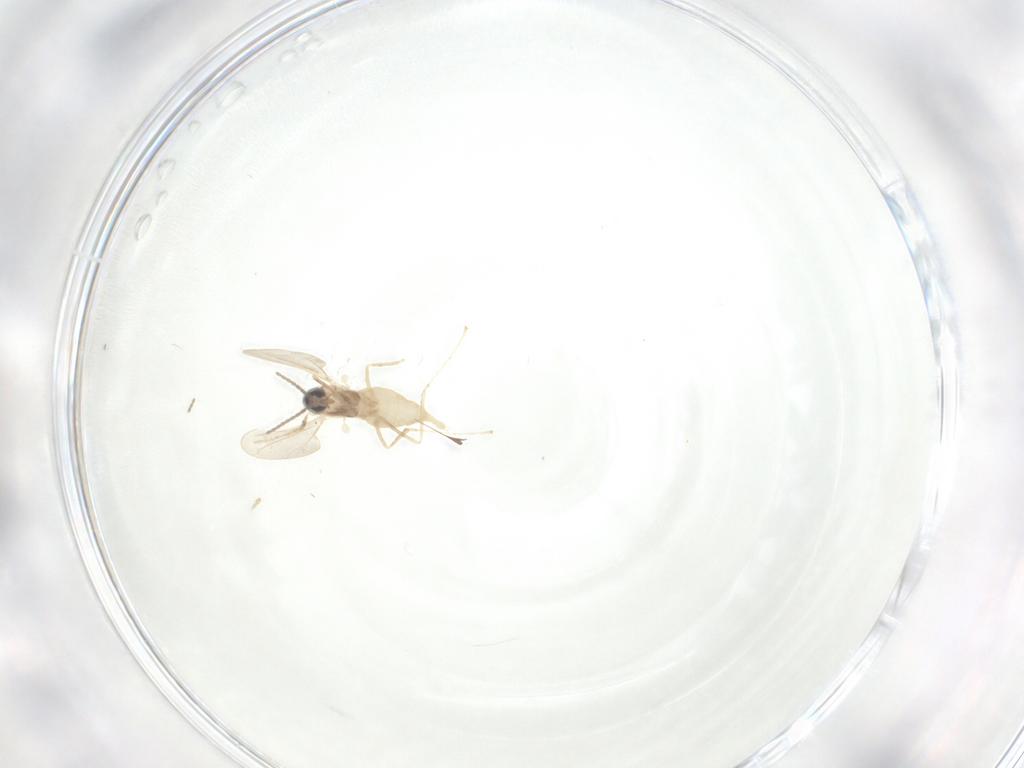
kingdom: Animalia
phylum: Arthropoda
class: Insecta
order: Diptera
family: Cecidomyiidae
